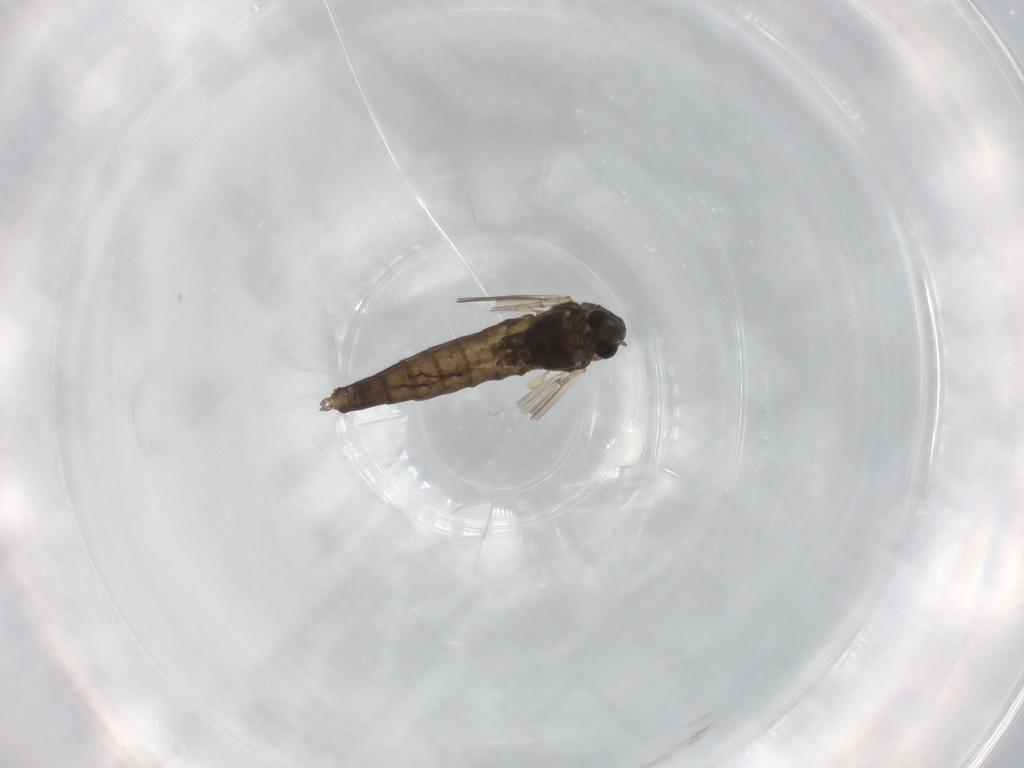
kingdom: Animalia
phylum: Arthropoda
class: Insecta
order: Diptera
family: Chironomidae
